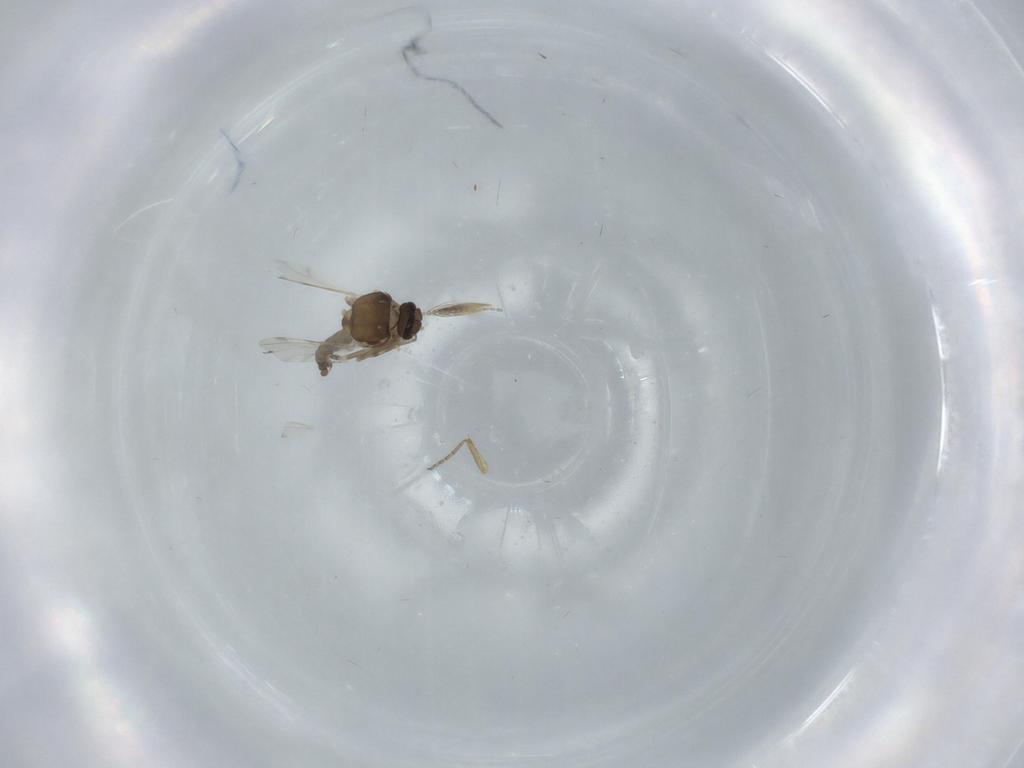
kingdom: Animalia
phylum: Arthropoda
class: Insecta
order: Diptera
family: Ceratopogonidae
